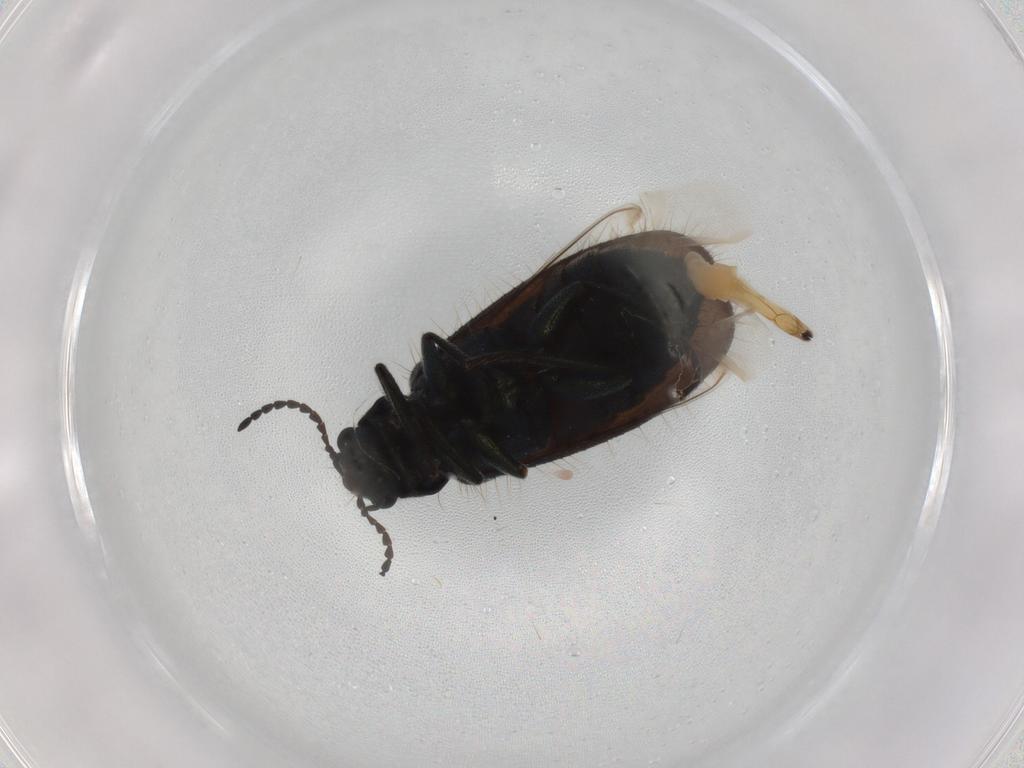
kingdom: Animalia
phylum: Arthropoda
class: Insecta
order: Coleoptera
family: Melyridae
